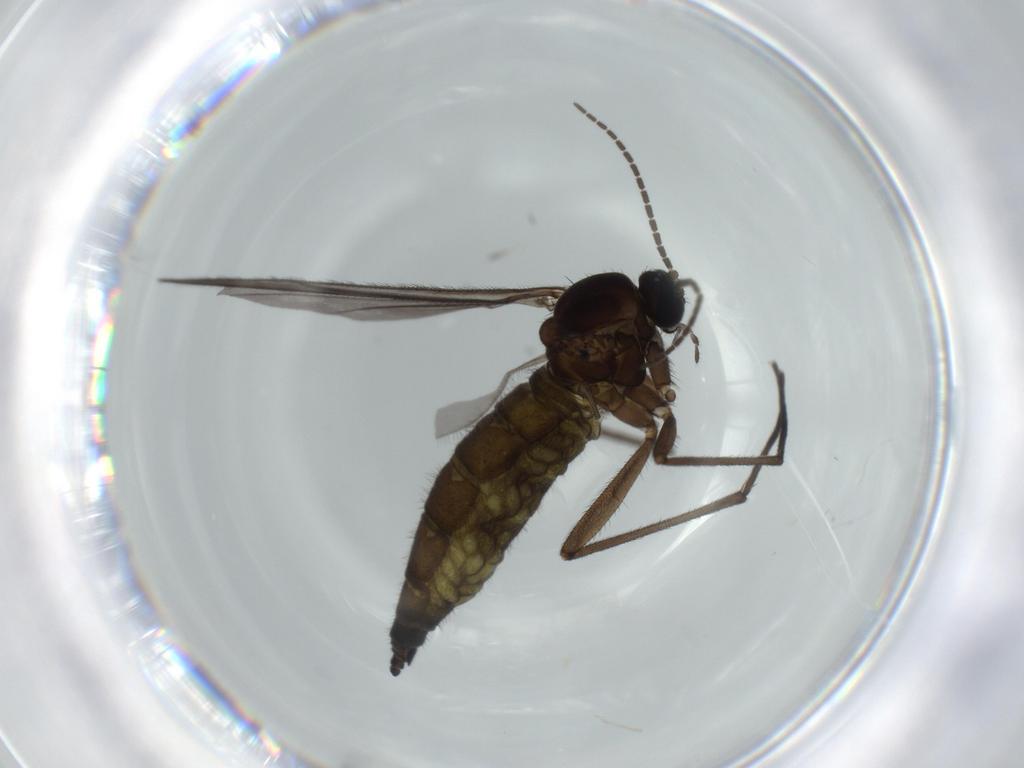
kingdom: Animalia
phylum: Arthropoda
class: Insecta
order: Diptera
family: Sciaridae
